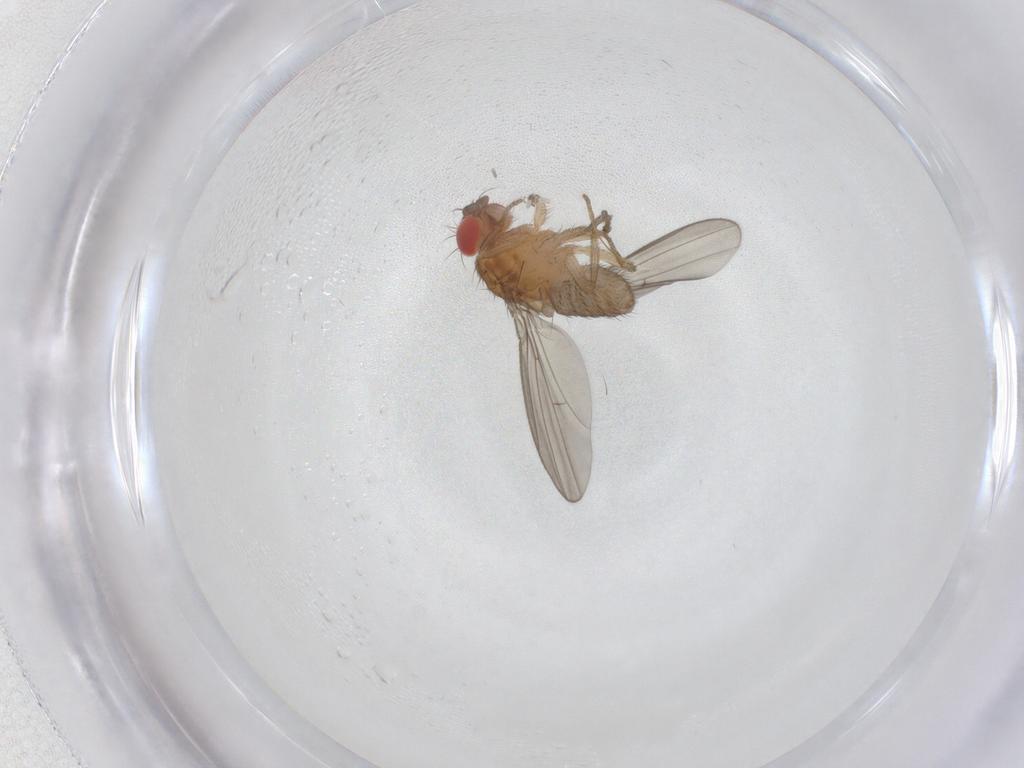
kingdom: Animalia
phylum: Arthropoda
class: Insecta
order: Diptera
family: Drosophilidae
